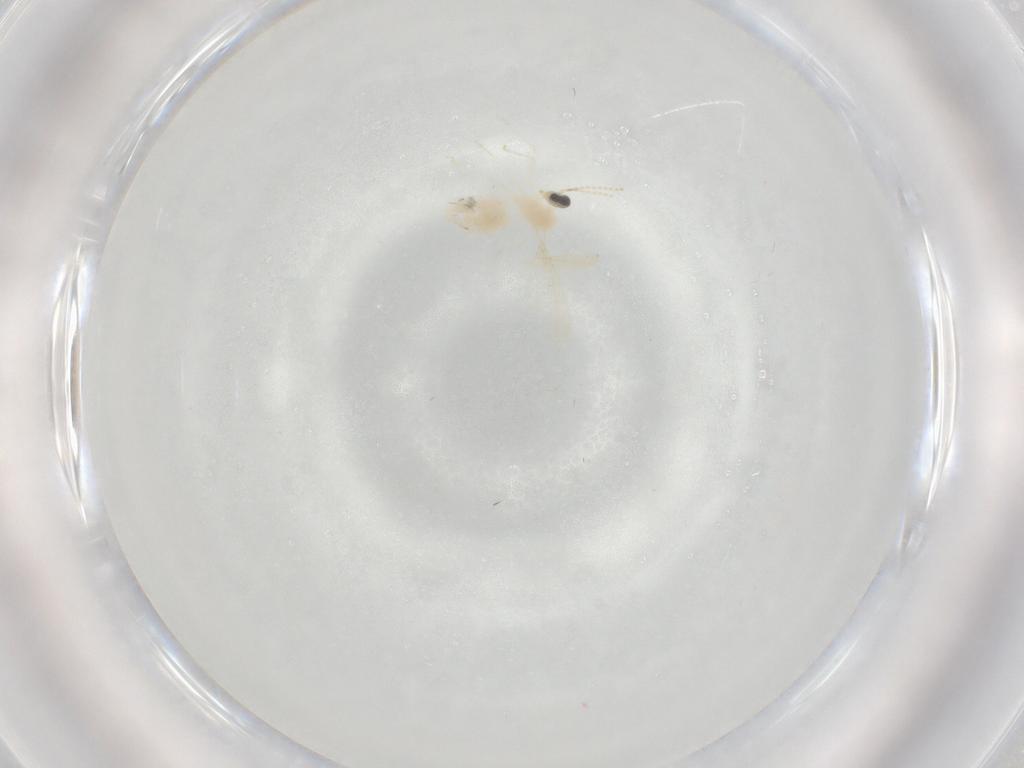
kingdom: Animalia
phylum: Arthropoda
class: Insecta
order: Diptera
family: Cecidomyiidae
